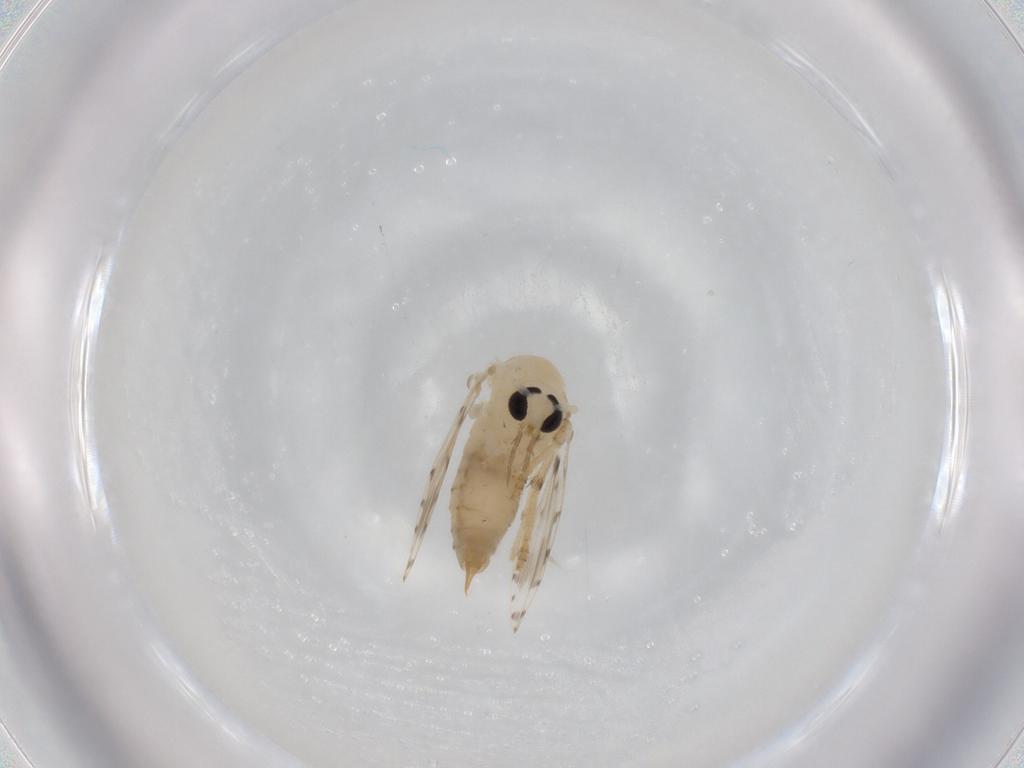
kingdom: Animalia
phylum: Arthropoda
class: Insecta
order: Diptera
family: Psychodidae
